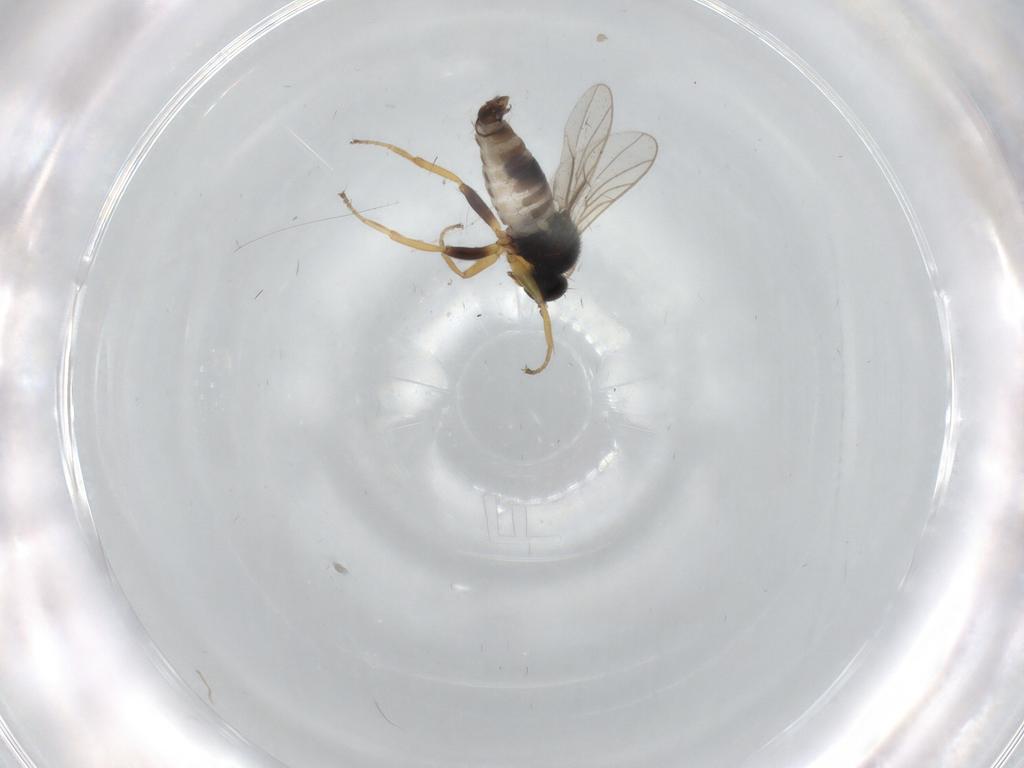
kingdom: Animalia
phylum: Arthropoda
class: Insecta
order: Diptera
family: Hybotidae
